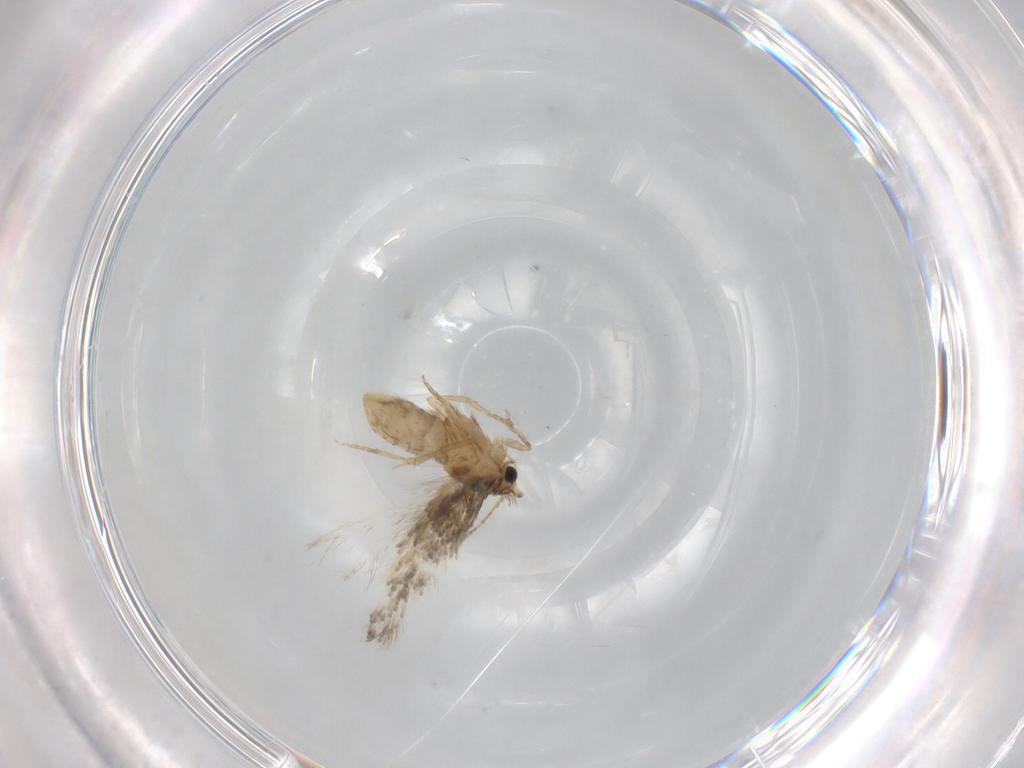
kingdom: Animalia
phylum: Arthropoda
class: Insecta
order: Lepidoptera
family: Nepticulidae
